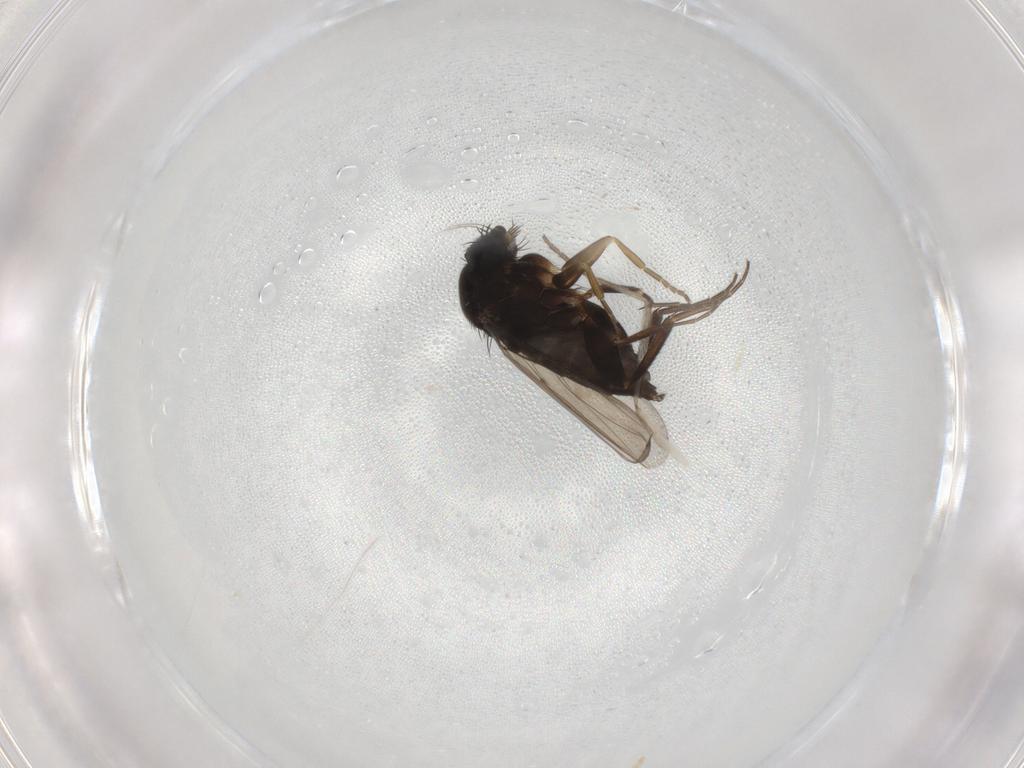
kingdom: Animalia
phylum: Arthropoda
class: Insecta
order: Diptera
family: Phoridae
